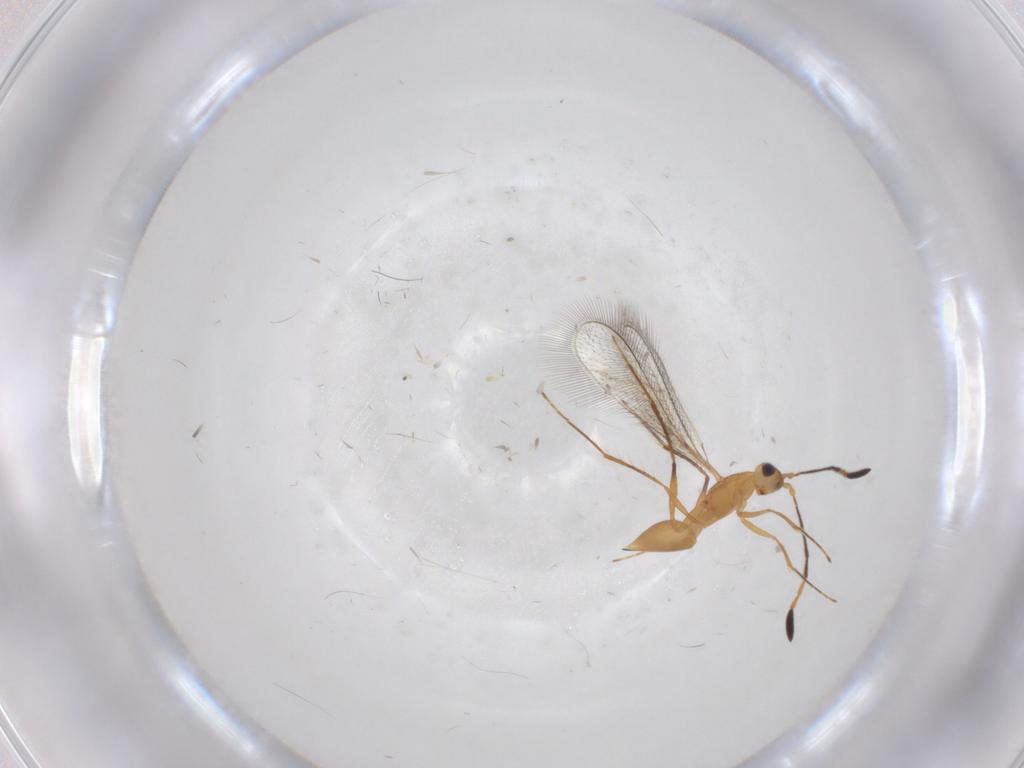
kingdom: Animalia
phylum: Arthropoda
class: Insecta
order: Hymenoptera
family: Mymaridae
